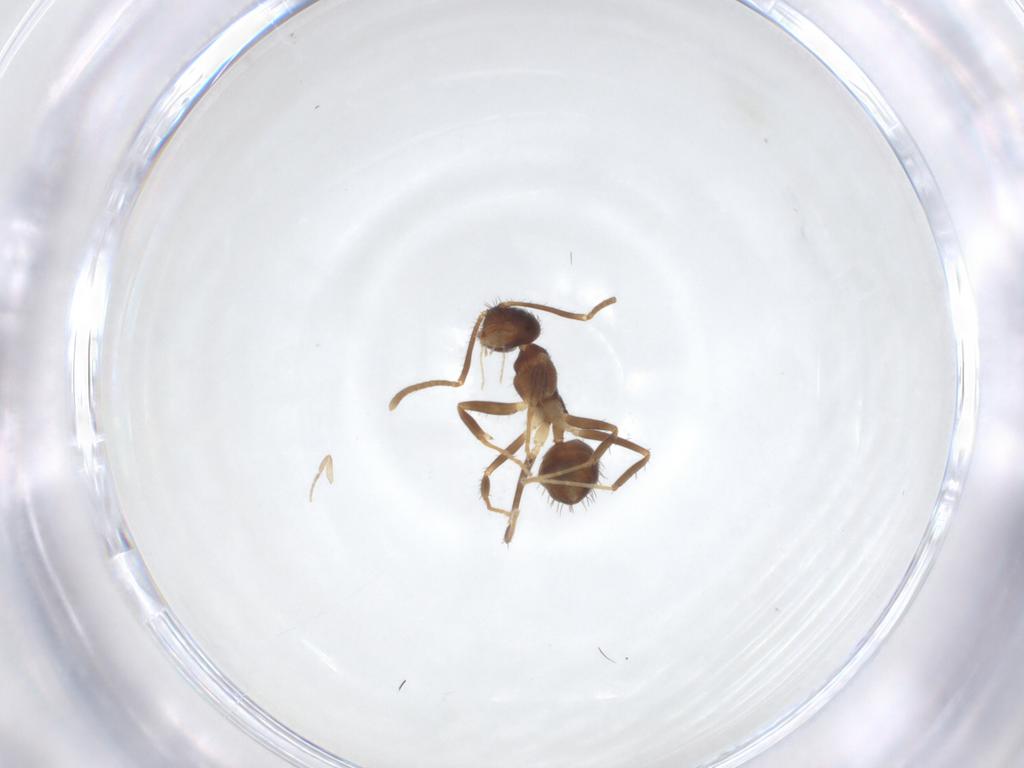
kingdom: Animalia
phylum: Arthropoda
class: Insecta
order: Hymenoptera
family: Formicidae
